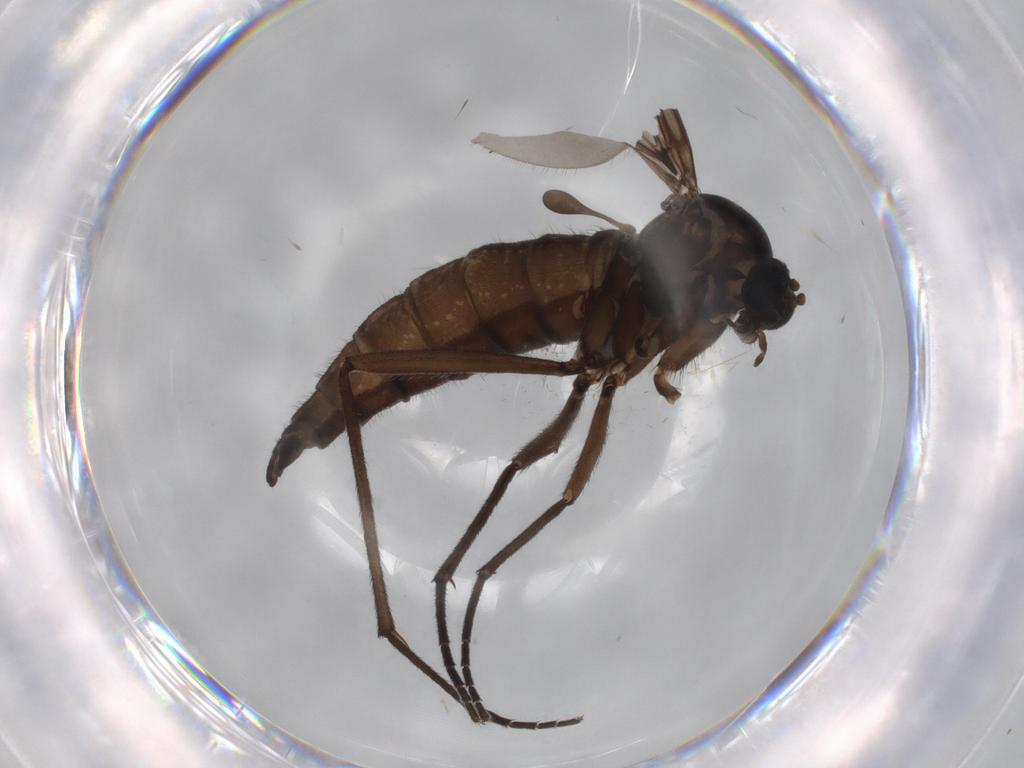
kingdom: Animalia
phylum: Arthropoda
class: Insecta
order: Diptera
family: Sciaridae
